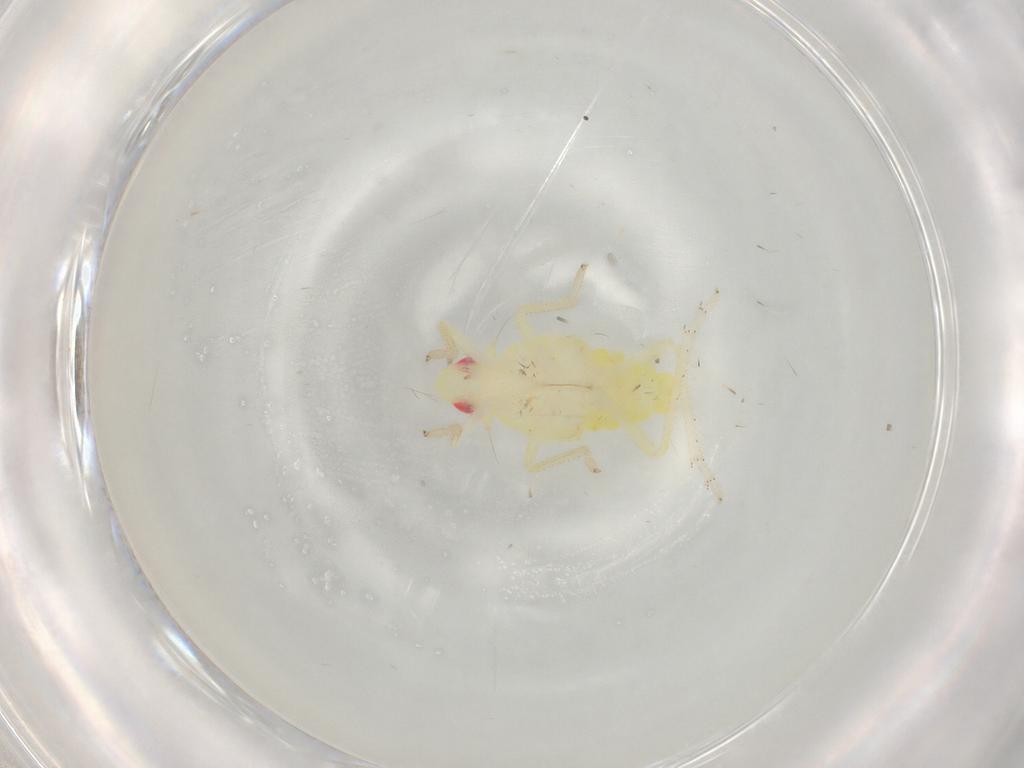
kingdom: Animalia
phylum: Arthropoda
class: Insecta
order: Hemiptera
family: Tropiduchidae
